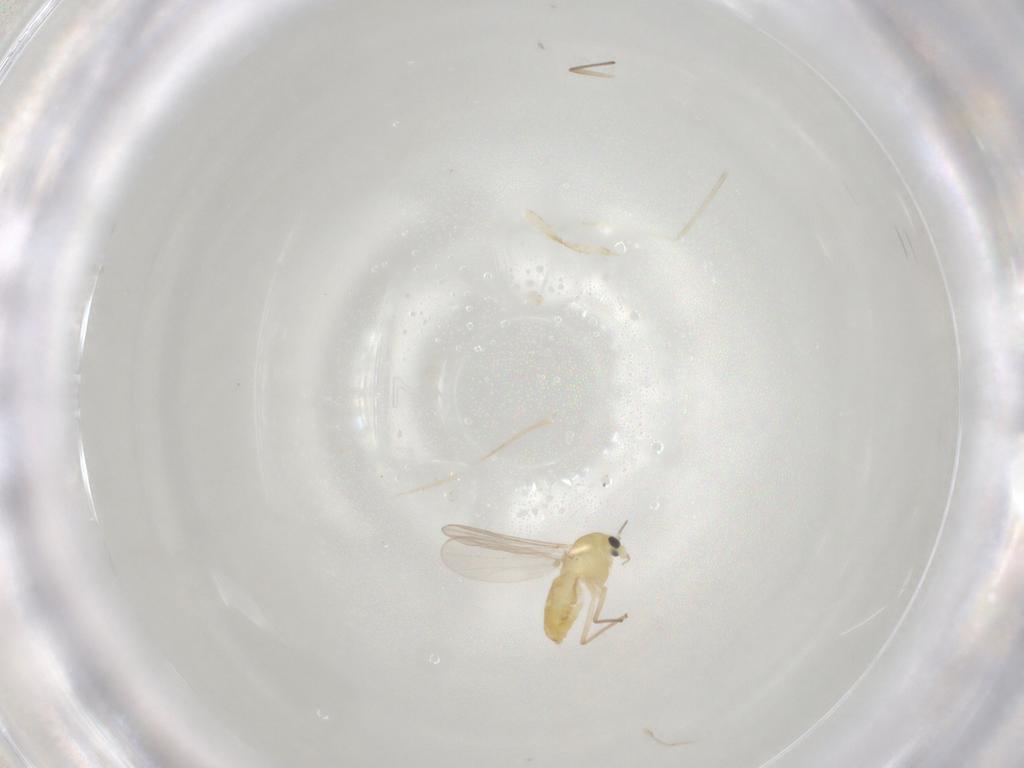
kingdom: Animalia
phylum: Arthropoda
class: Insecta
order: Diptera
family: Chironomidae
